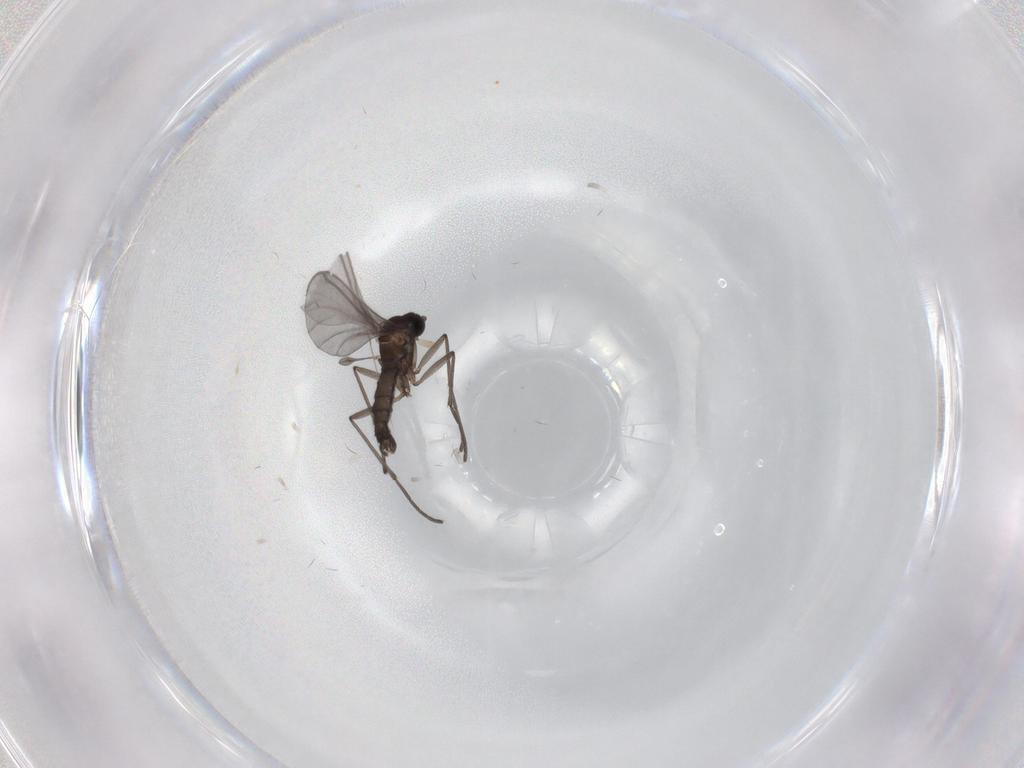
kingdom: Animalia
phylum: Arthropoda
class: Insecta
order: Diptera
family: Sciaridae
